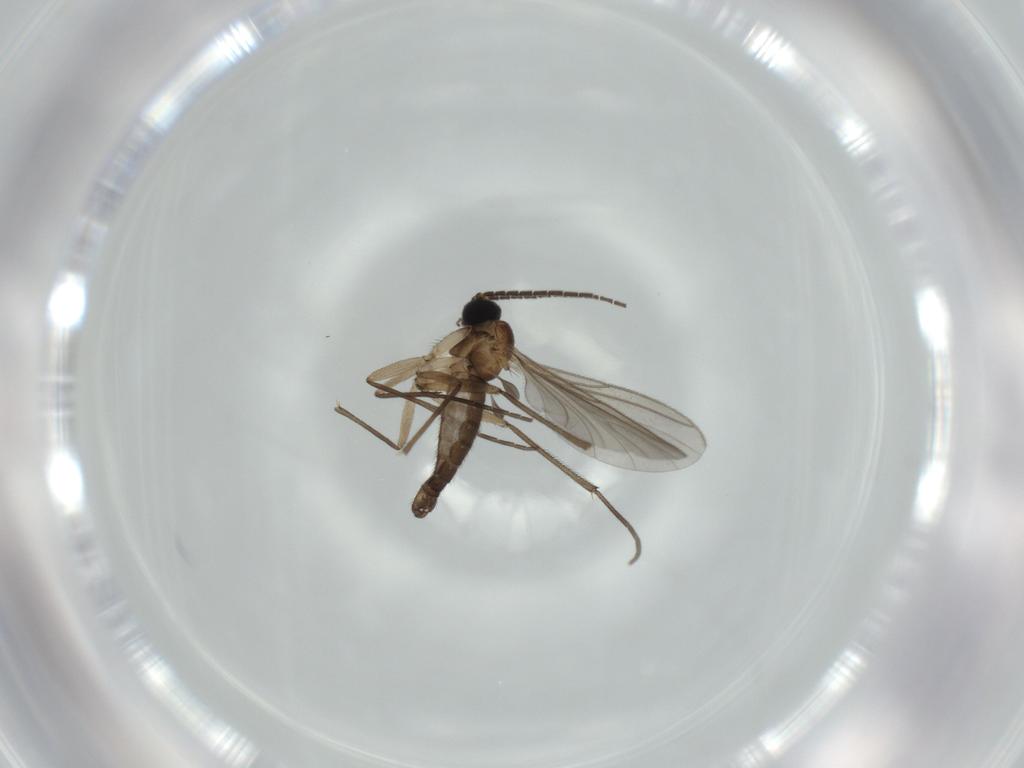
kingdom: Animalia
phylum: Arthropoda
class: Insecta
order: Diptera
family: Sciaridae
